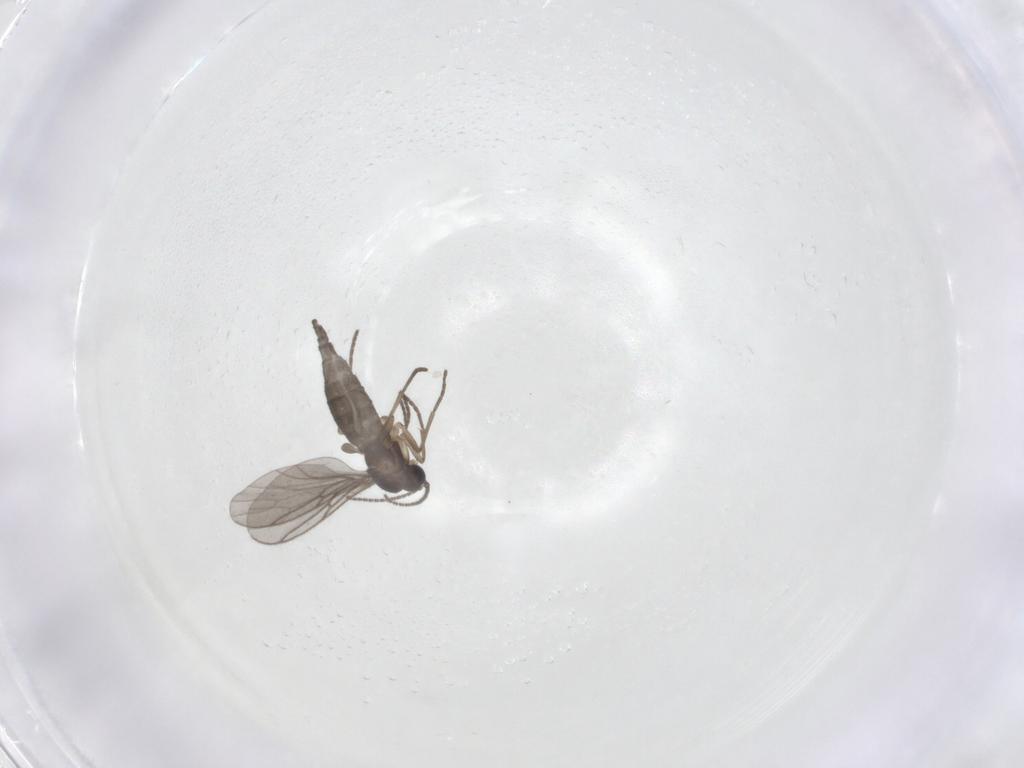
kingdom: Animalia
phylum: Arthropoda
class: Insecta
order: Diptera
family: Sciaridae
